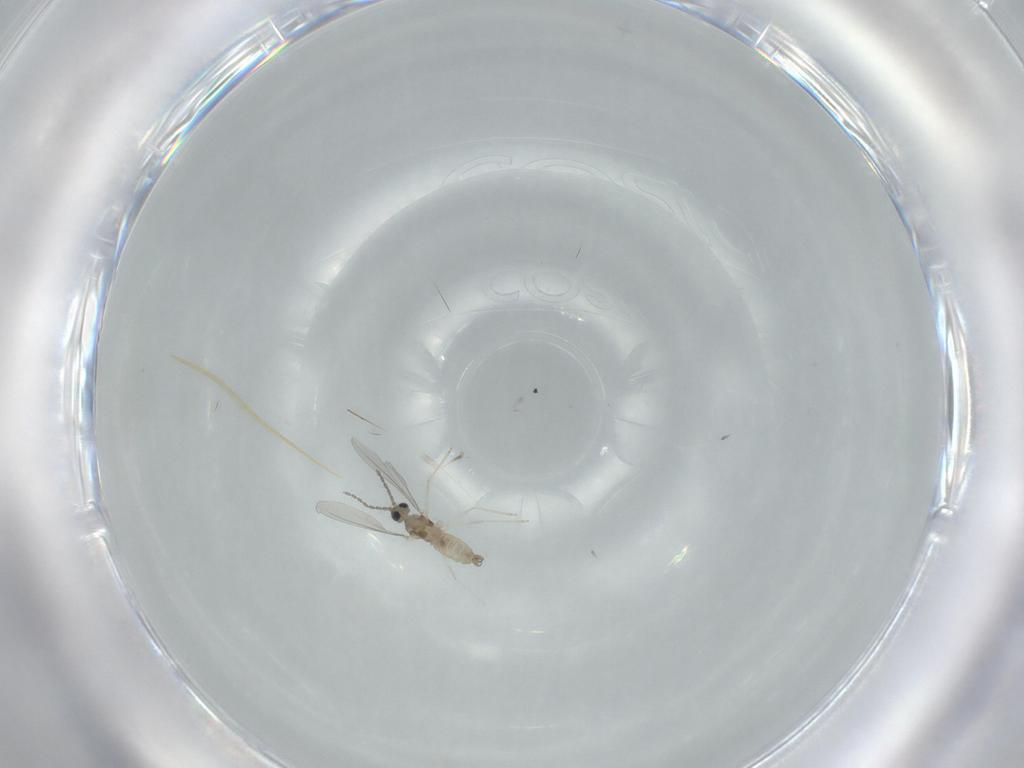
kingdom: Animalia
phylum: Arthropoda
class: Insecta
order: Diptera
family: Cecidomyiidae
